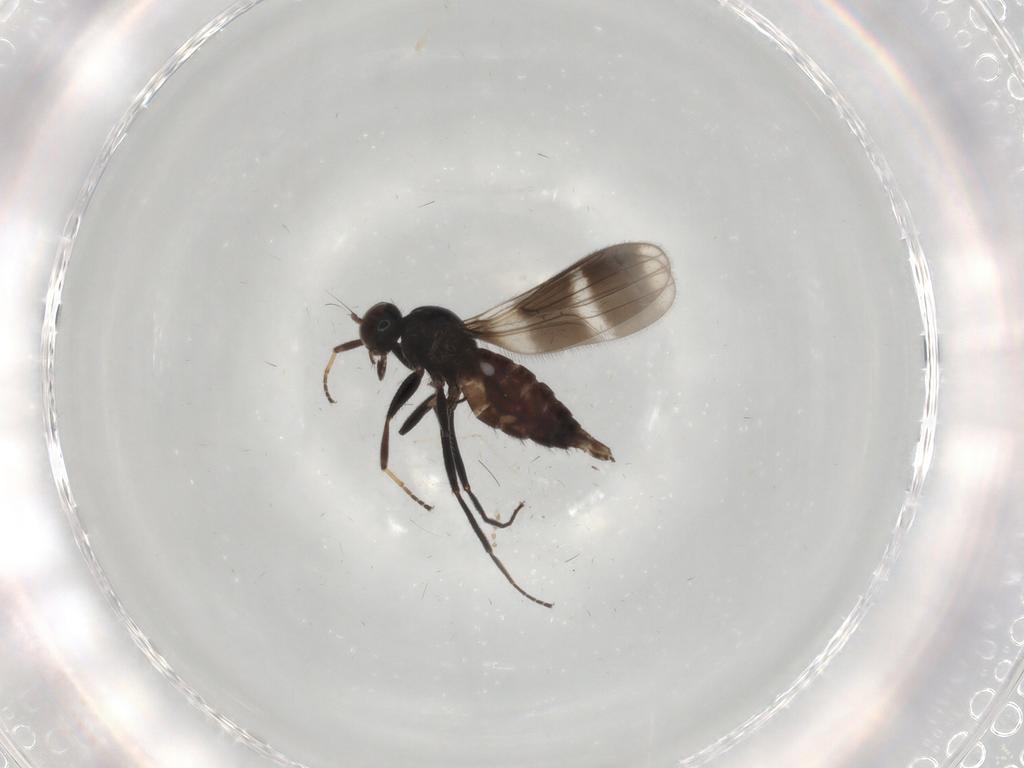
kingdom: Animalia
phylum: Arthropoda
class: Insecta
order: Diptera
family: Hybotidae
